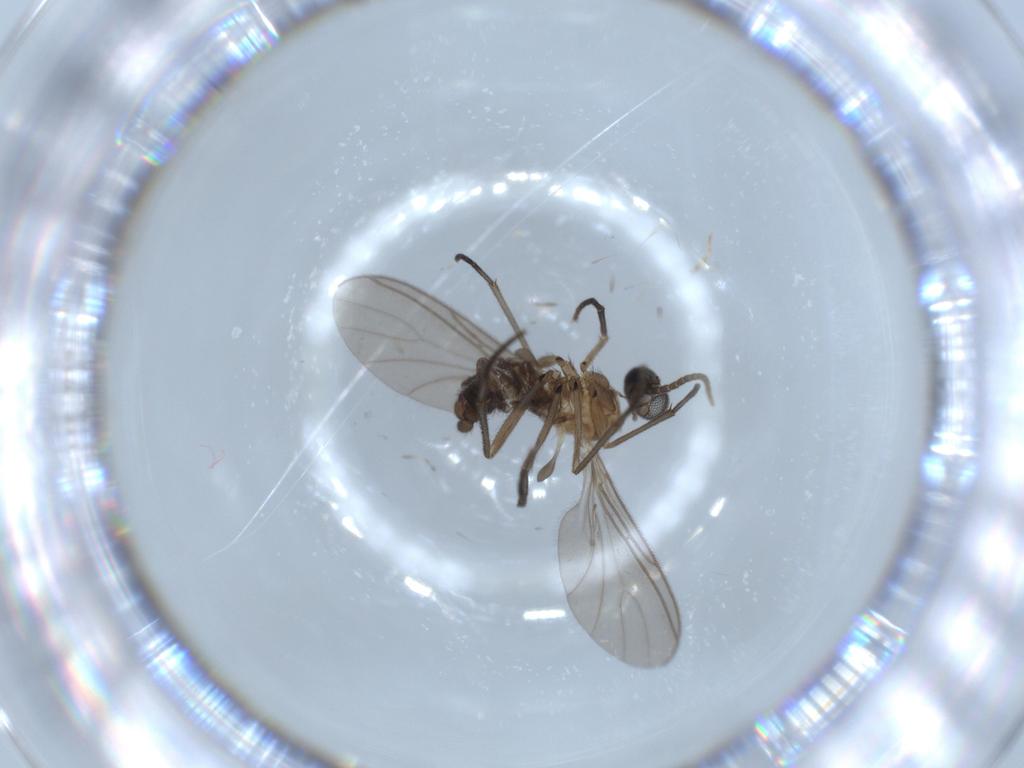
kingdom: Animalia
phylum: Arthropoda
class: Insecta
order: Diptera
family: Sciaridae
